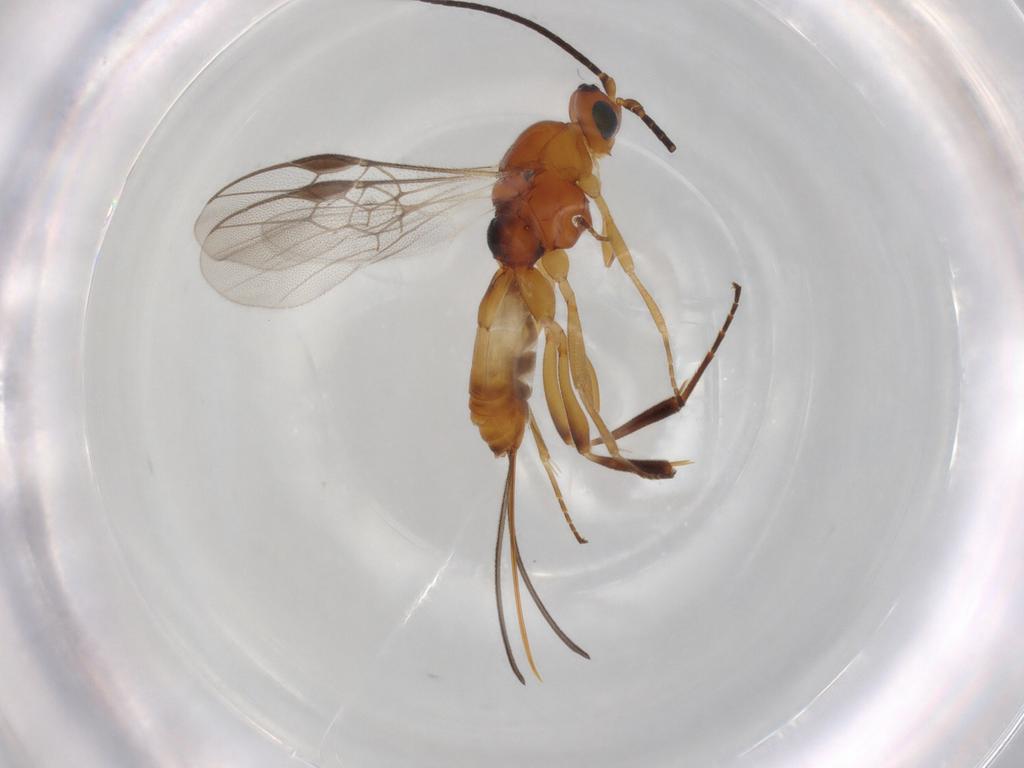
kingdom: Animalia
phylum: Arthropoda
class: Insecta
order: Hymenoptera
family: Braconidae
